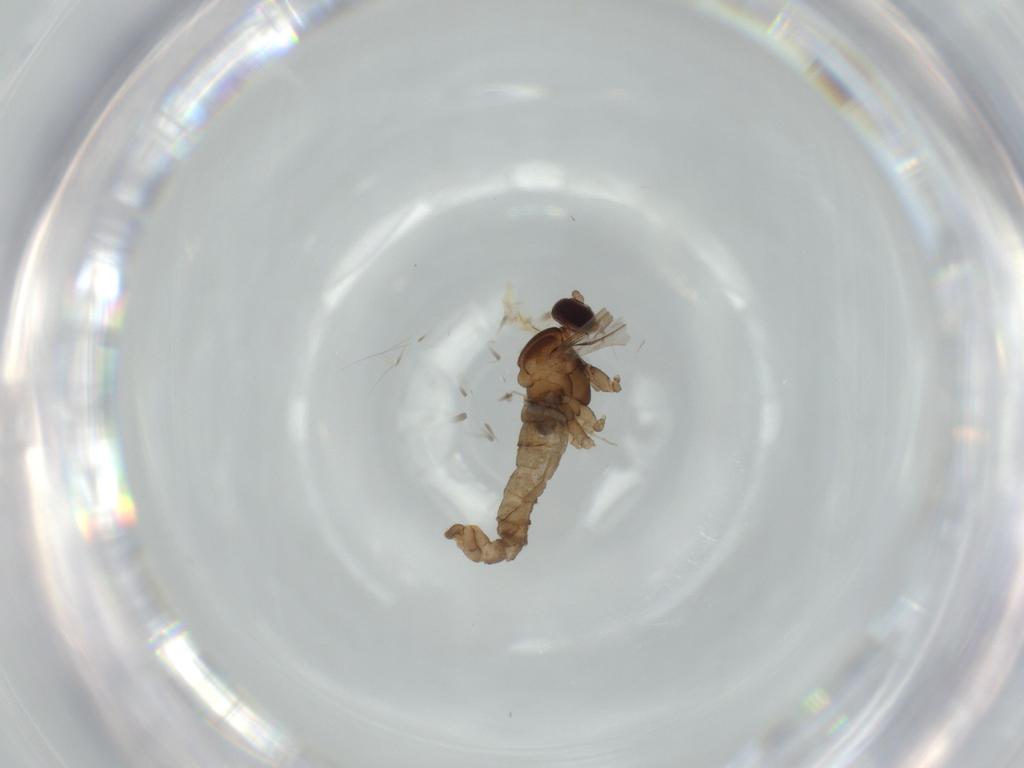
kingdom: Animalia
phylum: Arthropoda
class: Insecta
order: Diptera
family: Cecidomyiidae
